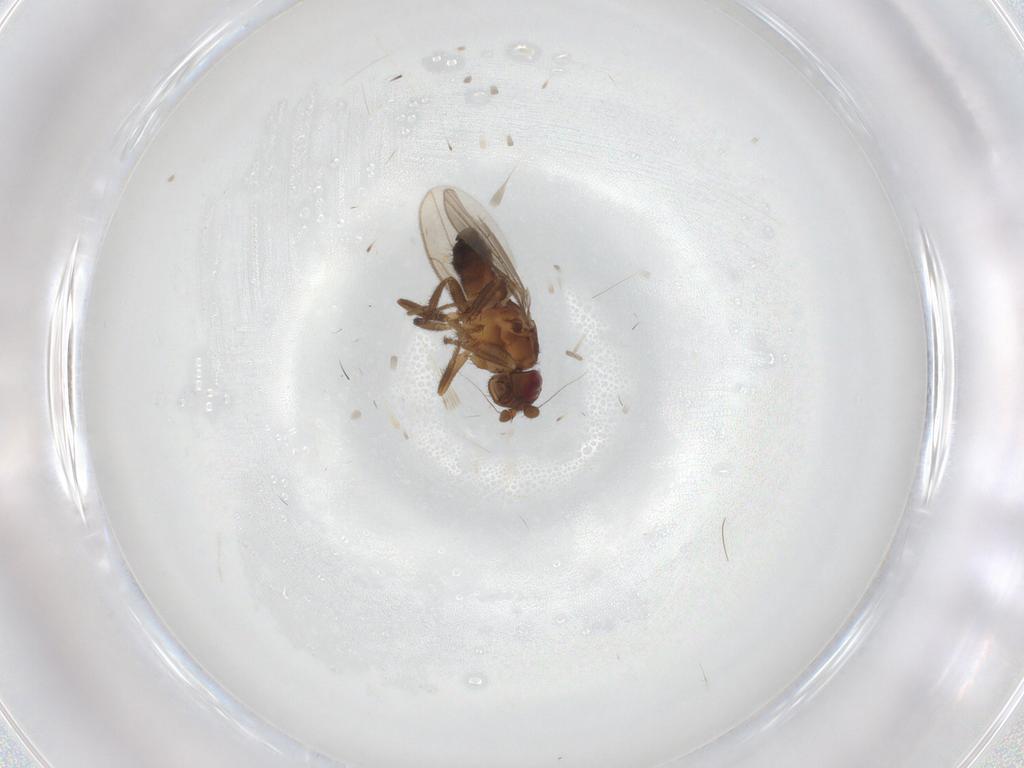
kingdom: Animalia
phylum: Arthropoda
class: Insecta
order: Diptera
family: Sphaeroceridae
